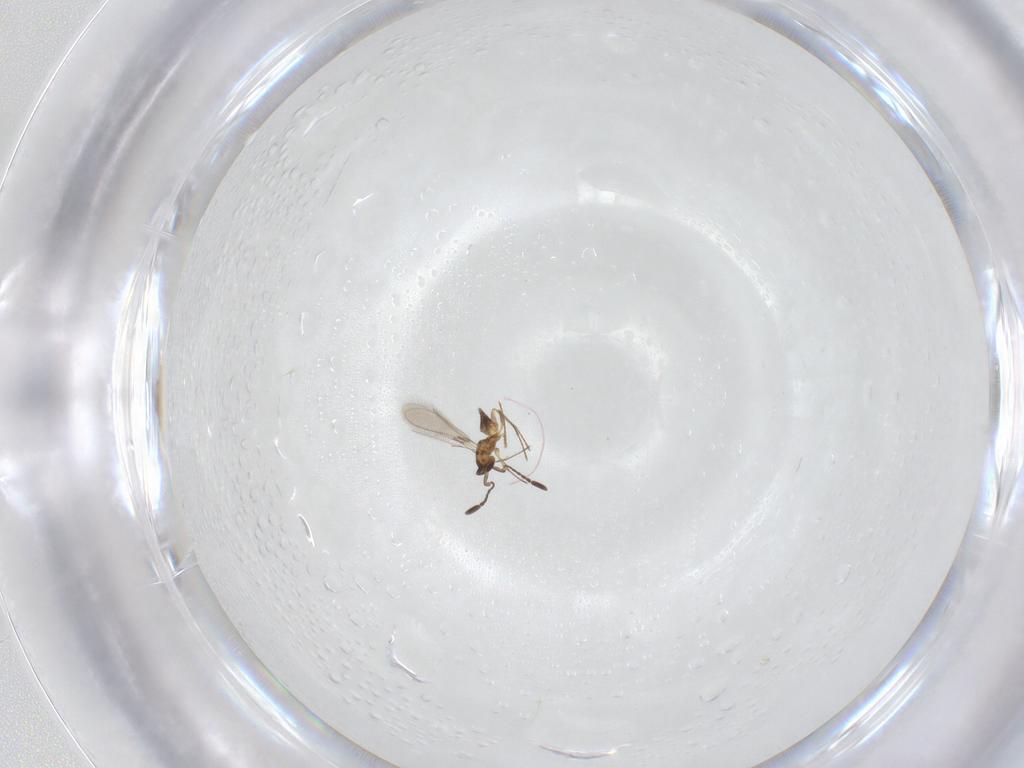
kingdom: Animalia
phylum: Arthropoda
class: Insecta
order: Hymenoptera
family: Mymaridae
